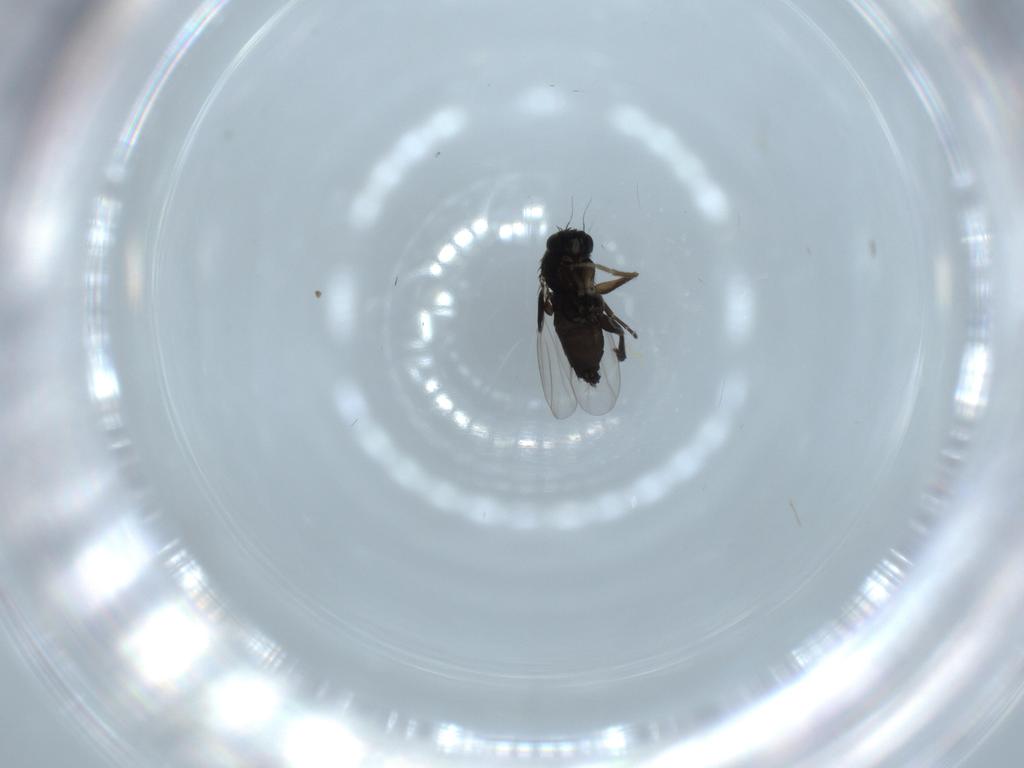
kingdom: Animalia
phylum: Arthropoda
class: Insecta
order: Diptera
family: Phoridae
